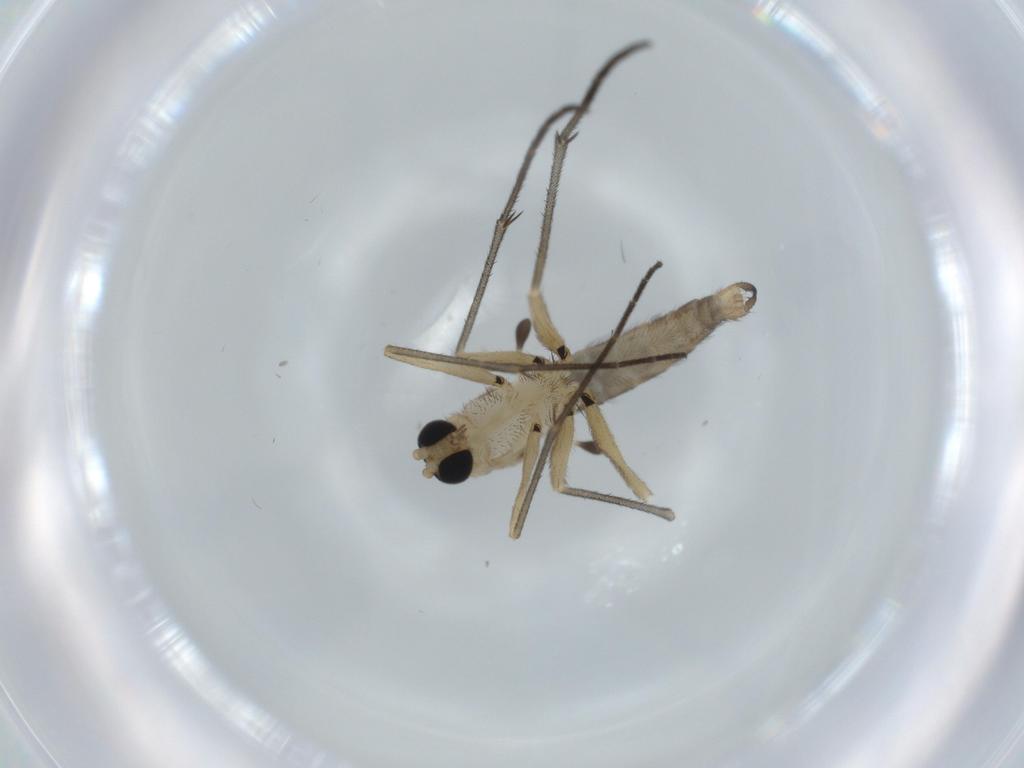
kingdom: Animalia
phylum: Arthropoda
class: Insecta
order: Diptera
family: Sciaridae
